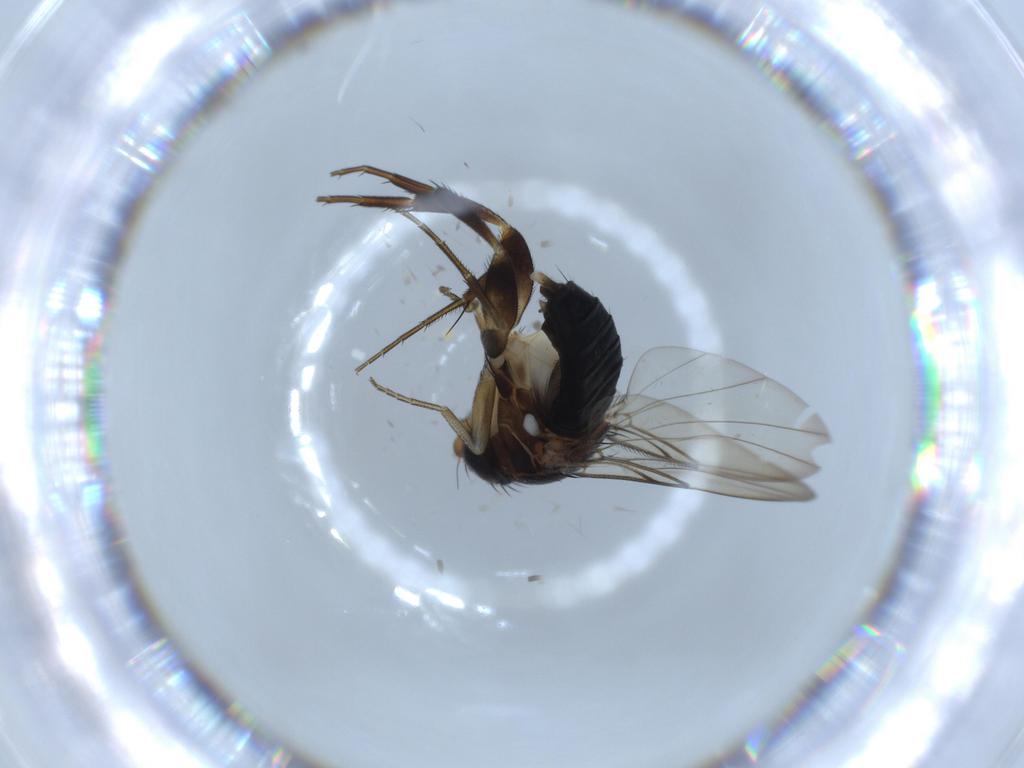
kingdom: Animalia
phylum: Arthropoda
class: Insecta
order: Diptera
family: Phoridae
